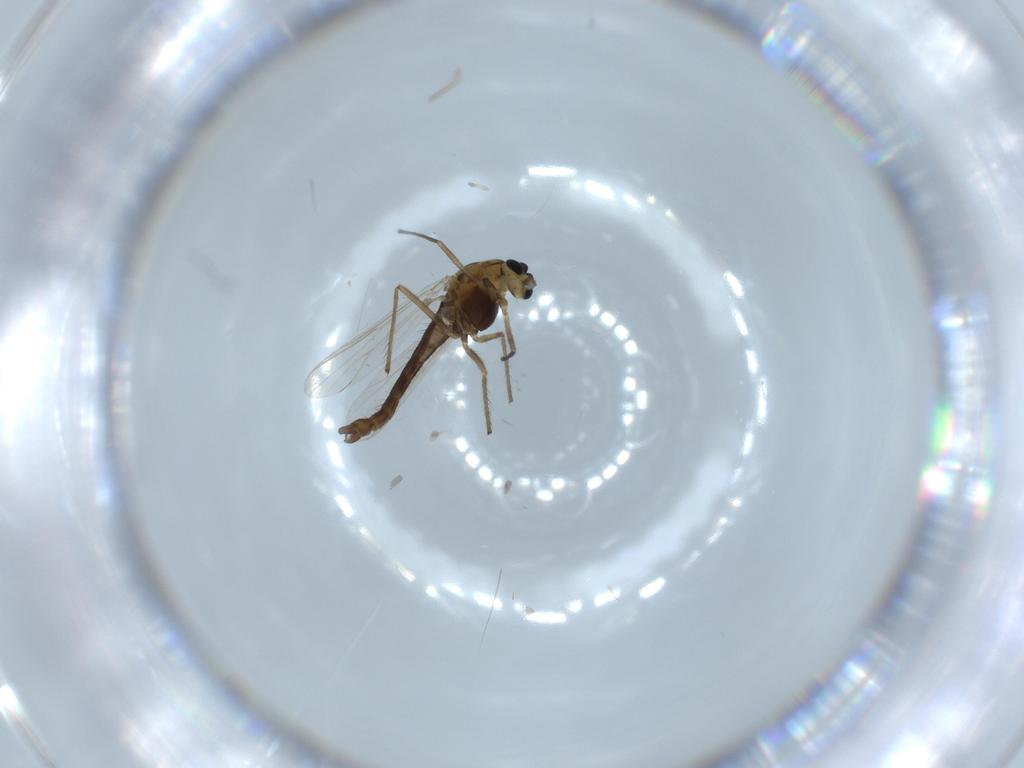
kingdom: Animalia
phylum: Arthropoda
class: Insecta
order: Diptera
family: Chironomidae
